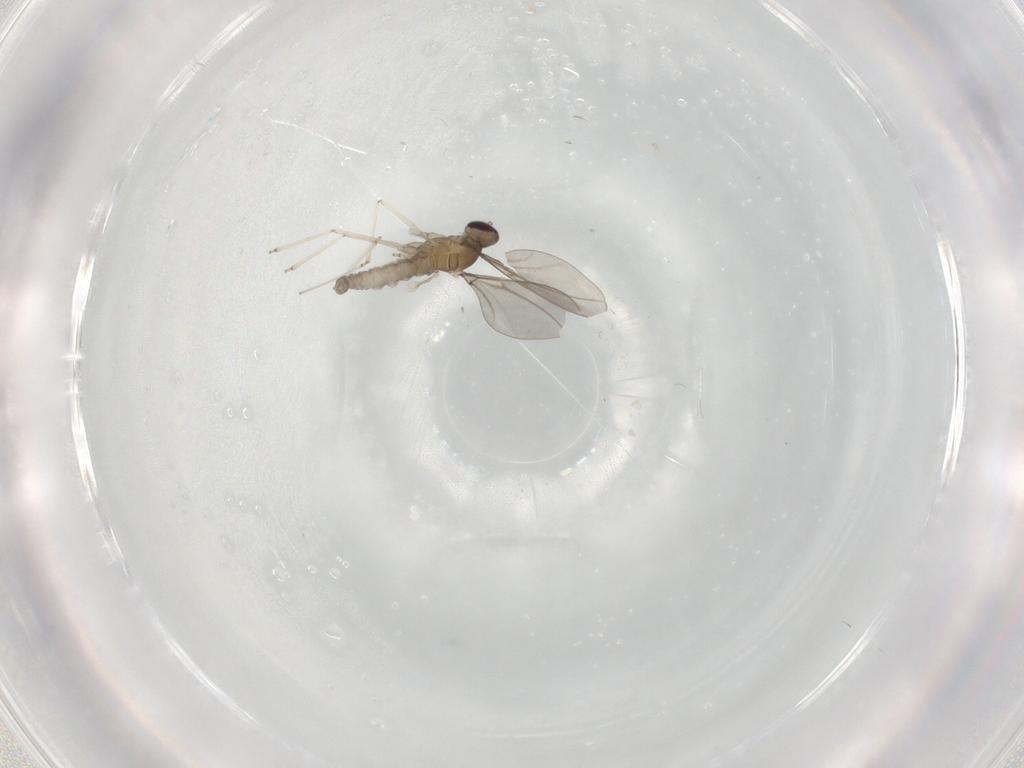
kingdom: Animalia
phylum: Arthropoda
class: Insecta
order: Diptera
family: Cecidomyiidae
